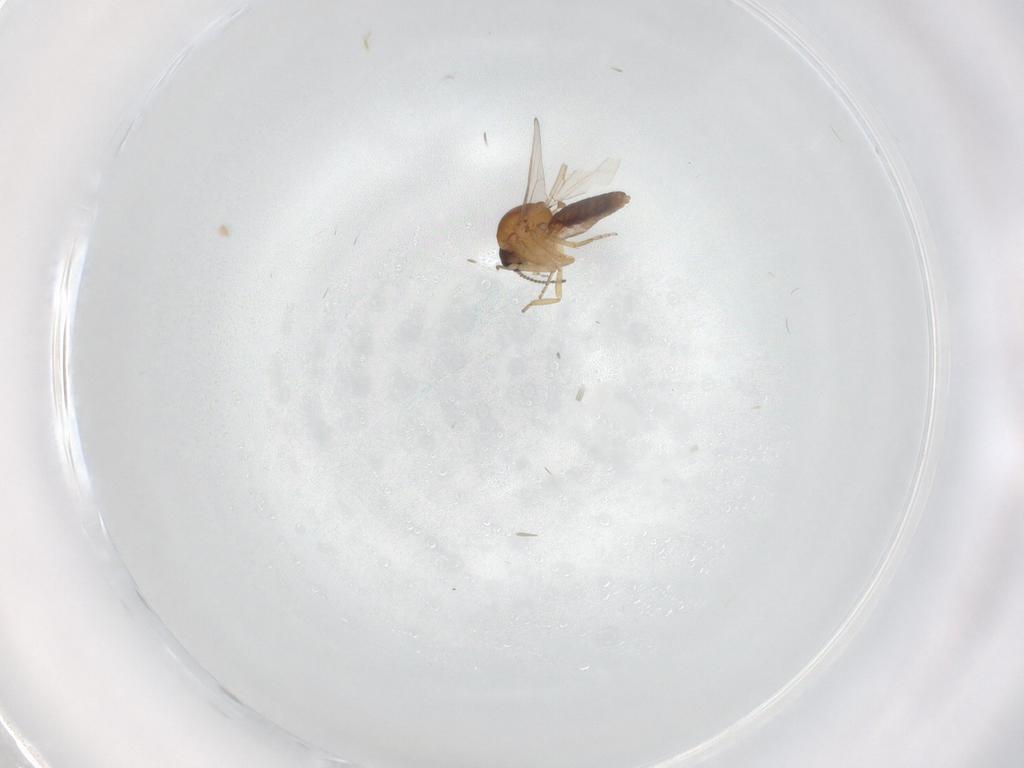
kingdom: Animalia
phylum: Arthropoda
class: Insecta
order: Diptera
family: Ceratopogonidae
